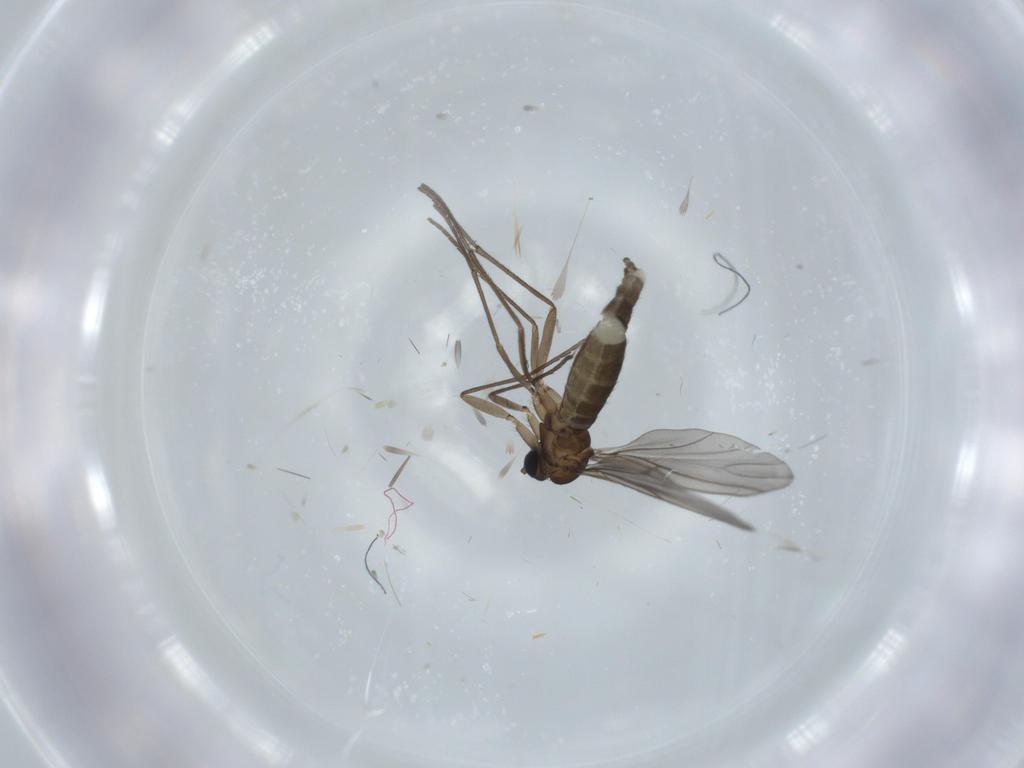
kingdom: Animalia
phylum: Arthropoda
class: Insecta
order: Diptera
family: Sciaridae
